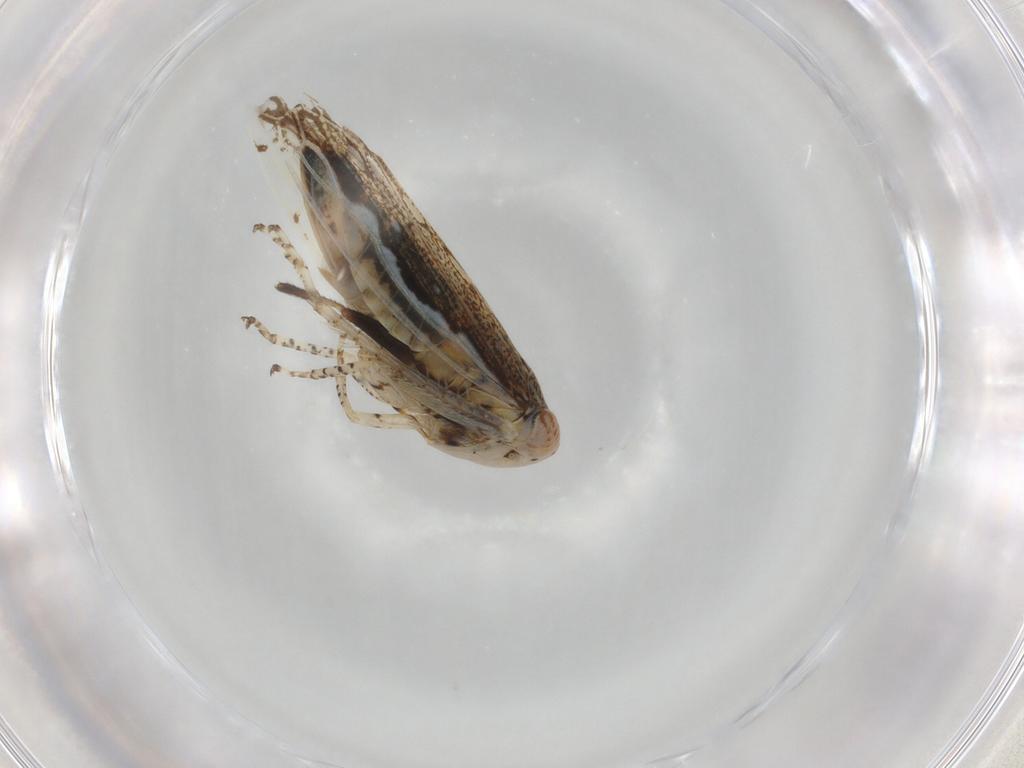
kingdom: Animalia
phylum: Arthropoda
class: Insecta
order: Hemiptera
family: Cicadellidae
